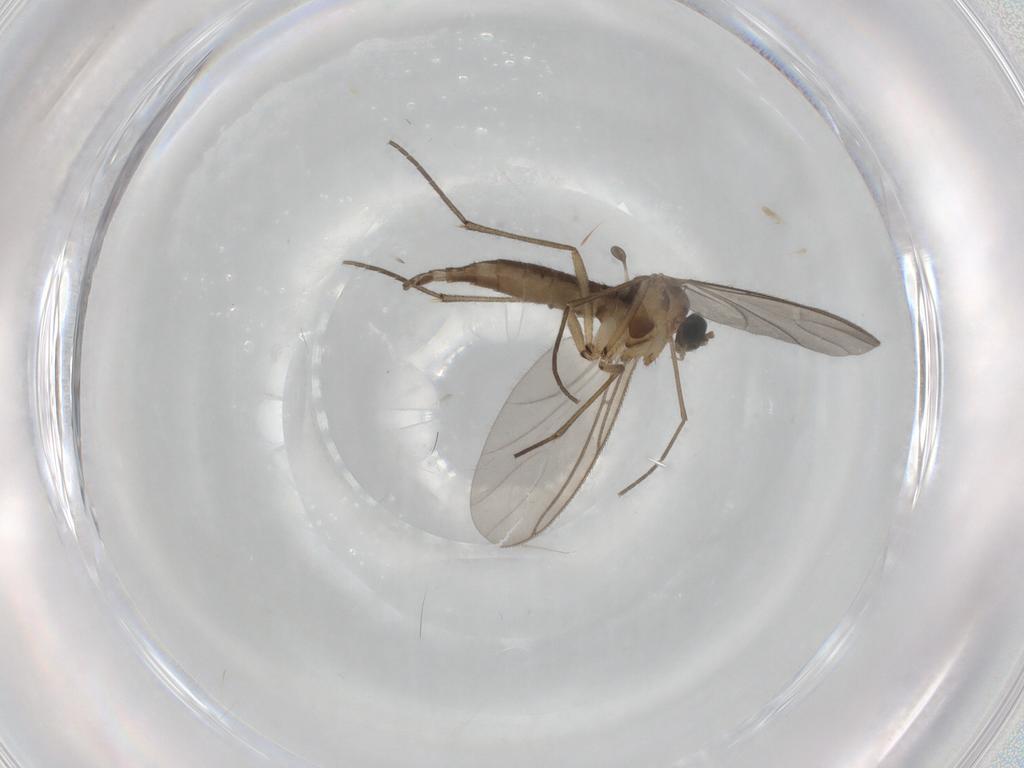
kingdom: Animalia
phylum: Arthropoda
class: Insecta
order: Diptera
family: Sciaridae
